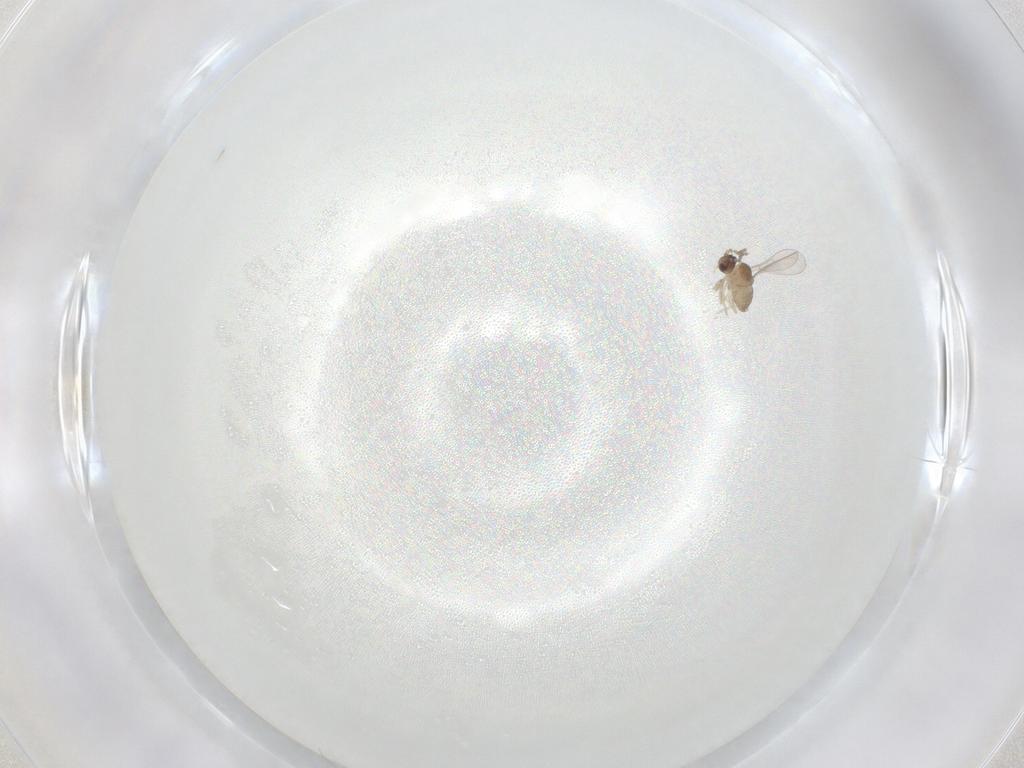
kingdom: Animalia
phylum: Arthropoda
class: Insecta
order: Diptera
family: Cecidomyiidae
